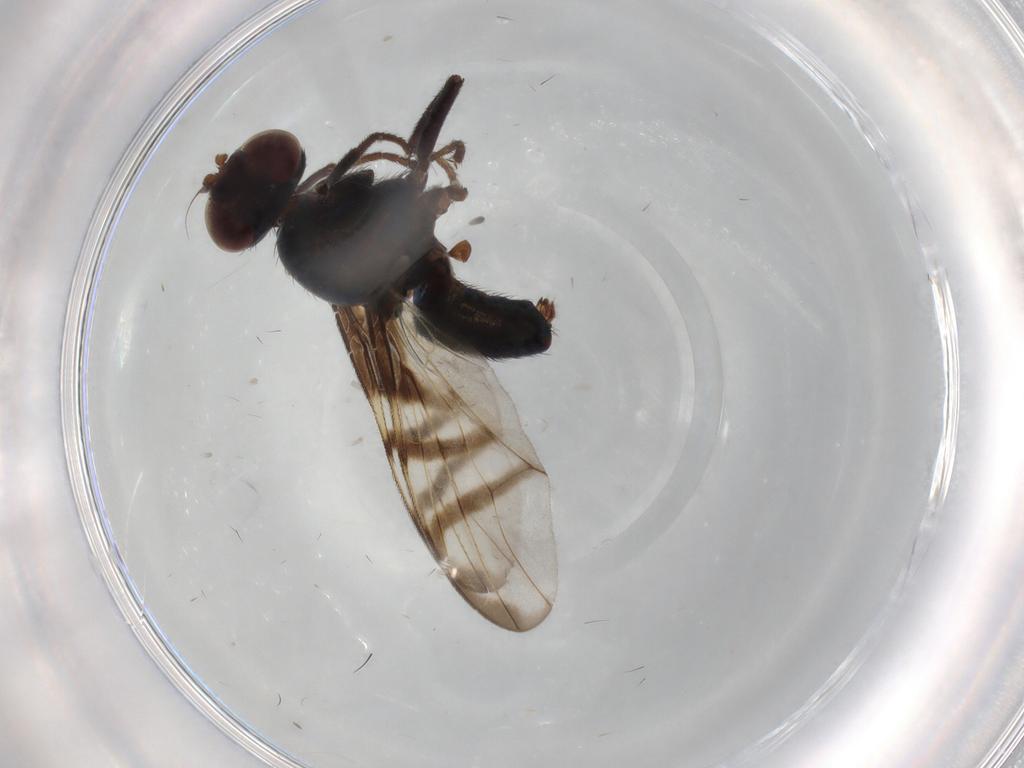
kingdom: Animalia
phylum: Arthropoda
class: Insecta
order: Diptera
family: Platystomatidae
